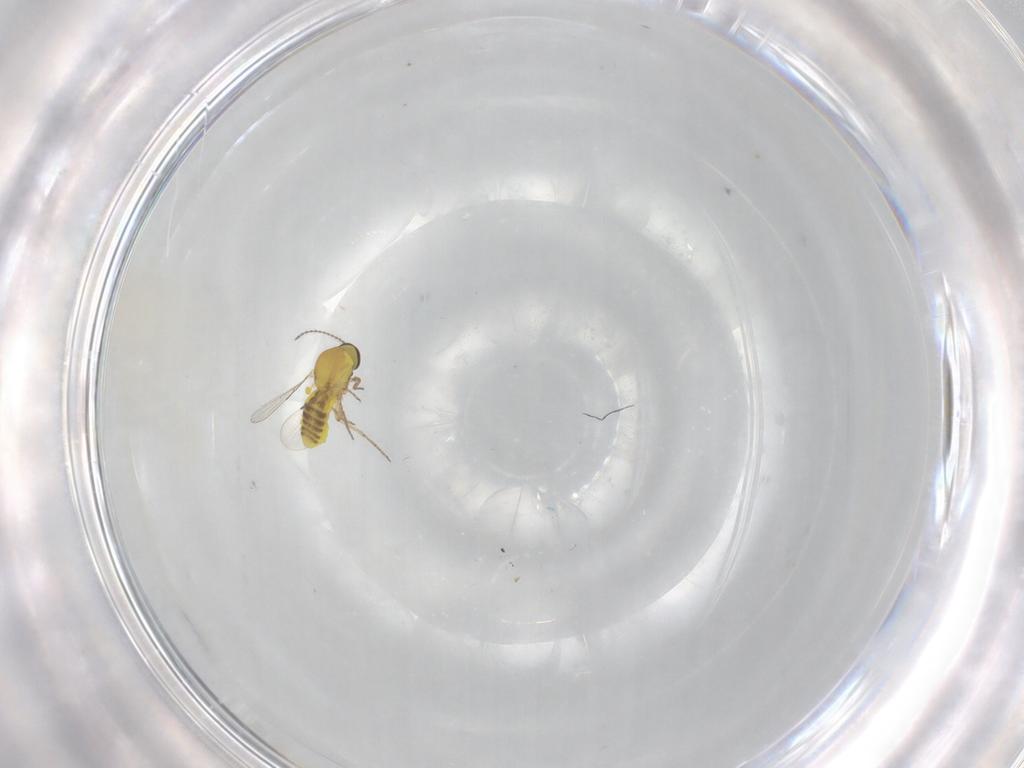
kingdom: Animalia
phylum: Arthropoda
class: Insecta
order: Diptera
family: Ceratopogonidae
